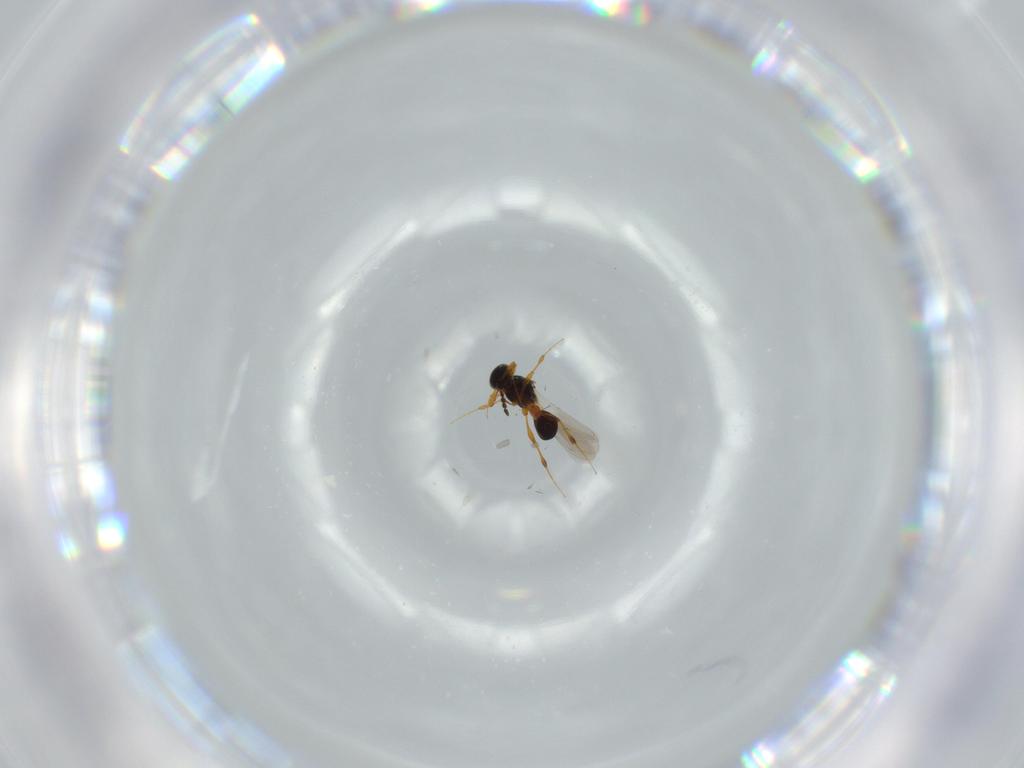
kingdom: Animalia
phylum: Arthropoda
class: Insecta
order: Hymenoptera
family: Platygastridae
